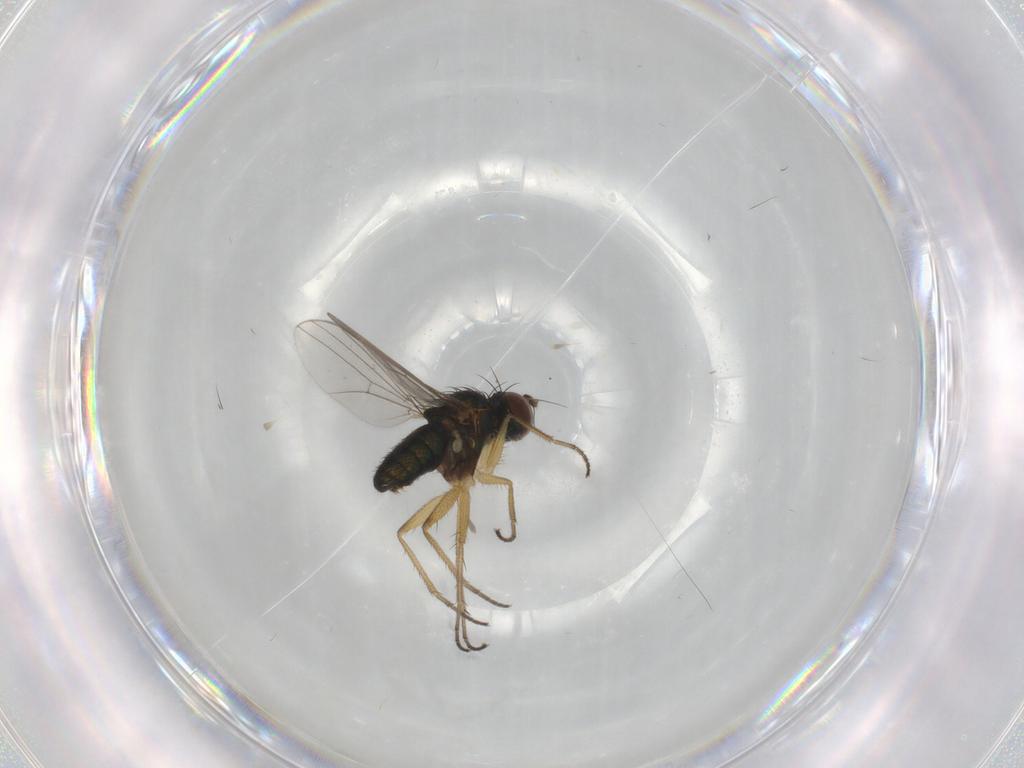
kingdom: Animalia
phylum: Arthropoda
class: Insecta
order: Diptera
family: Dolichopodidae
